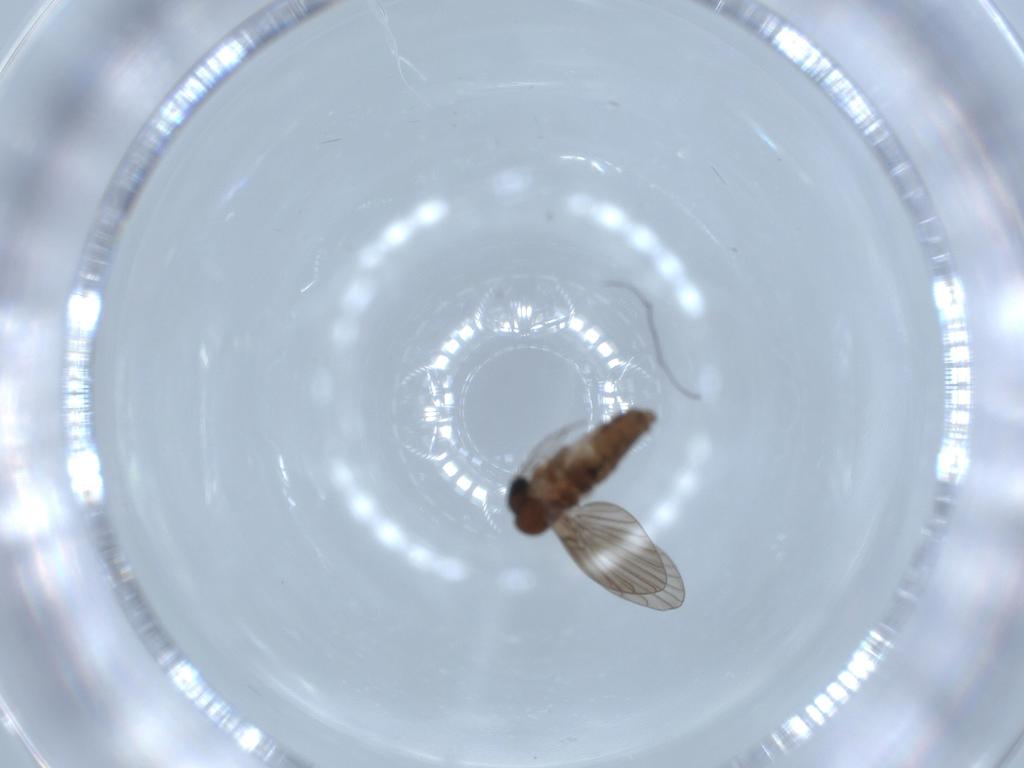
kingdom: Animalia
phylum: Arthropoda
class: Insecta
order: Diptera
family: Psychodidae
